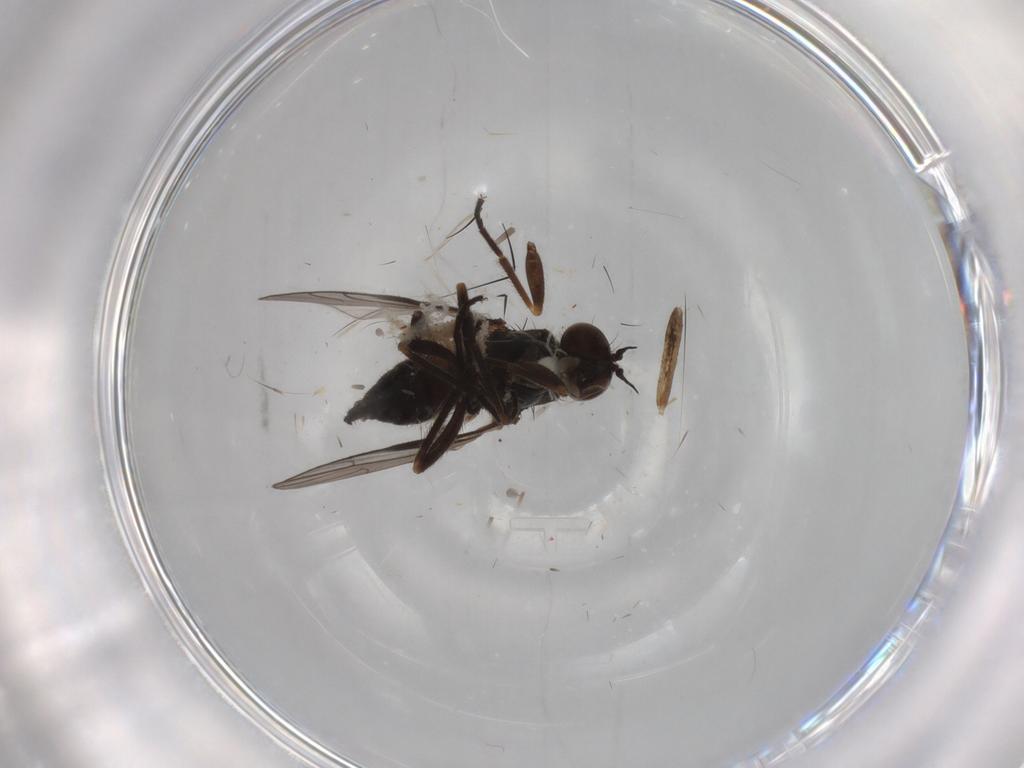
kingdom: Animalia
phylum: Arthropoda
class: Insecta
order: Diptera
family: Empididae
